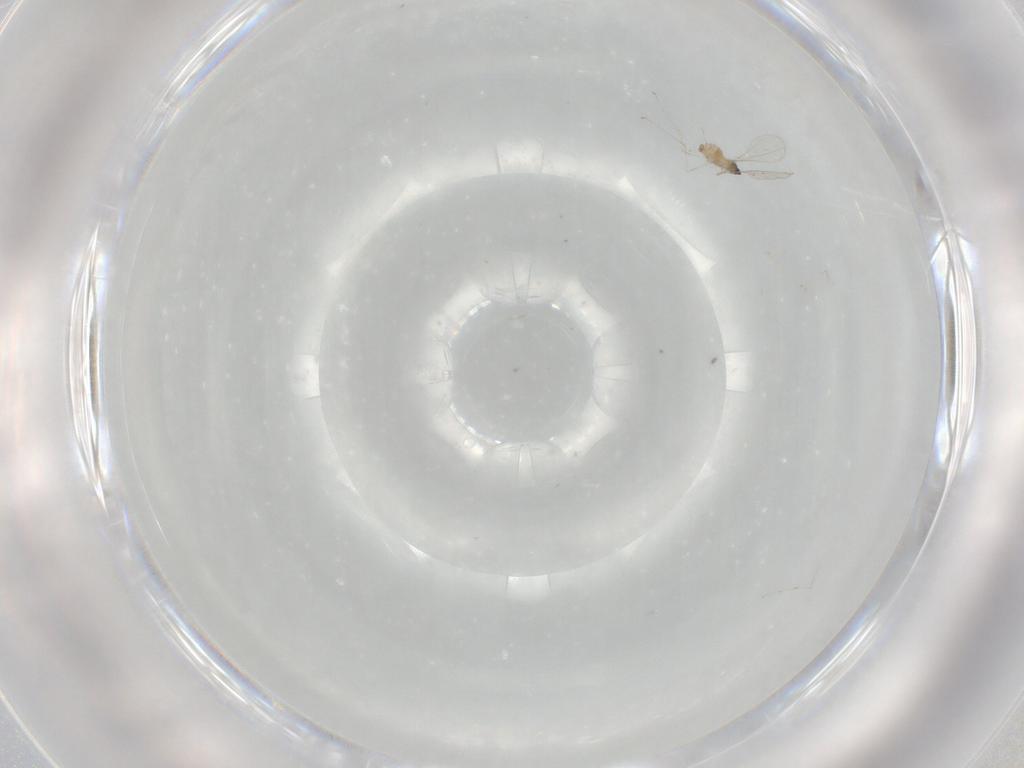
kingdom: Animalia
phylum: Arthropoda
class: Insecta
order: Diptera
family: Cecidomyiidae
